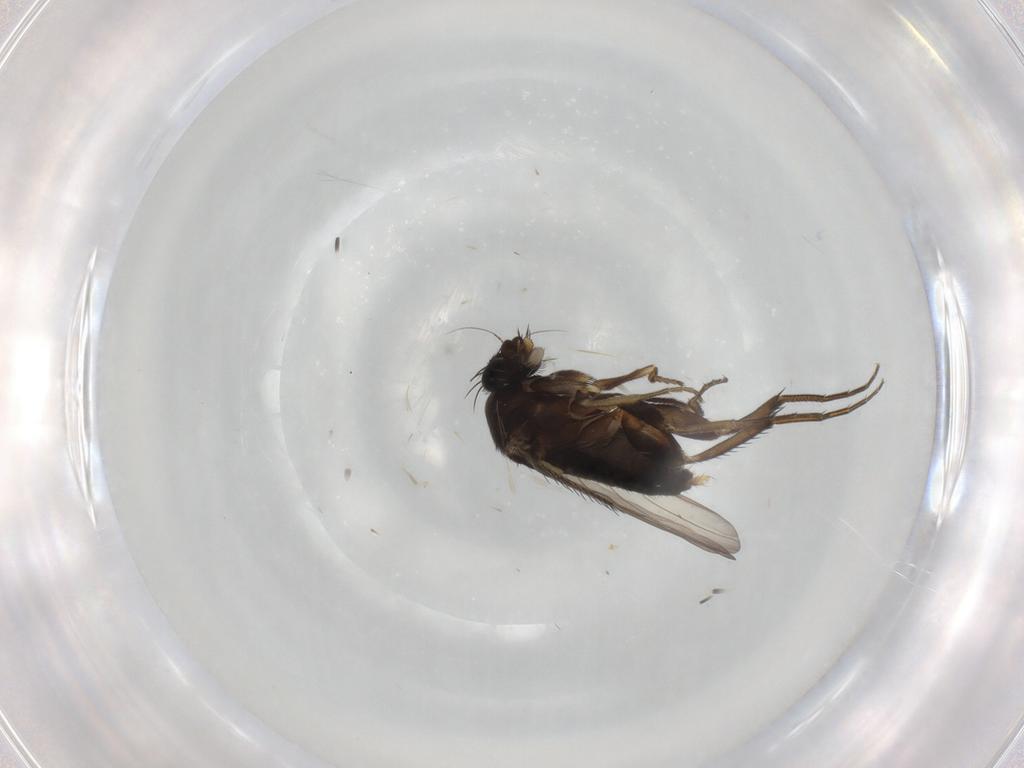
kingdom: Animalia
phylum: Arthropoda
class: Insecta
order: Diptera
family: Phoridae
